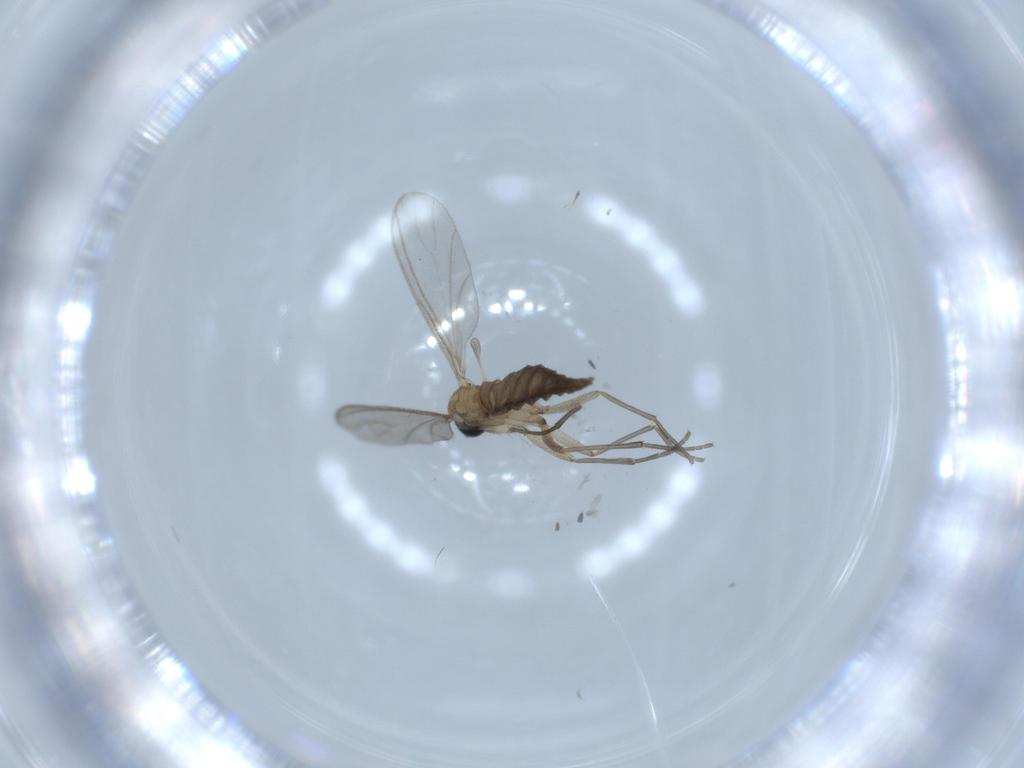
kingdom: Animalia
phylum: Arthropoda
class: Insecta
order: Diptera
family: Sciaridae
